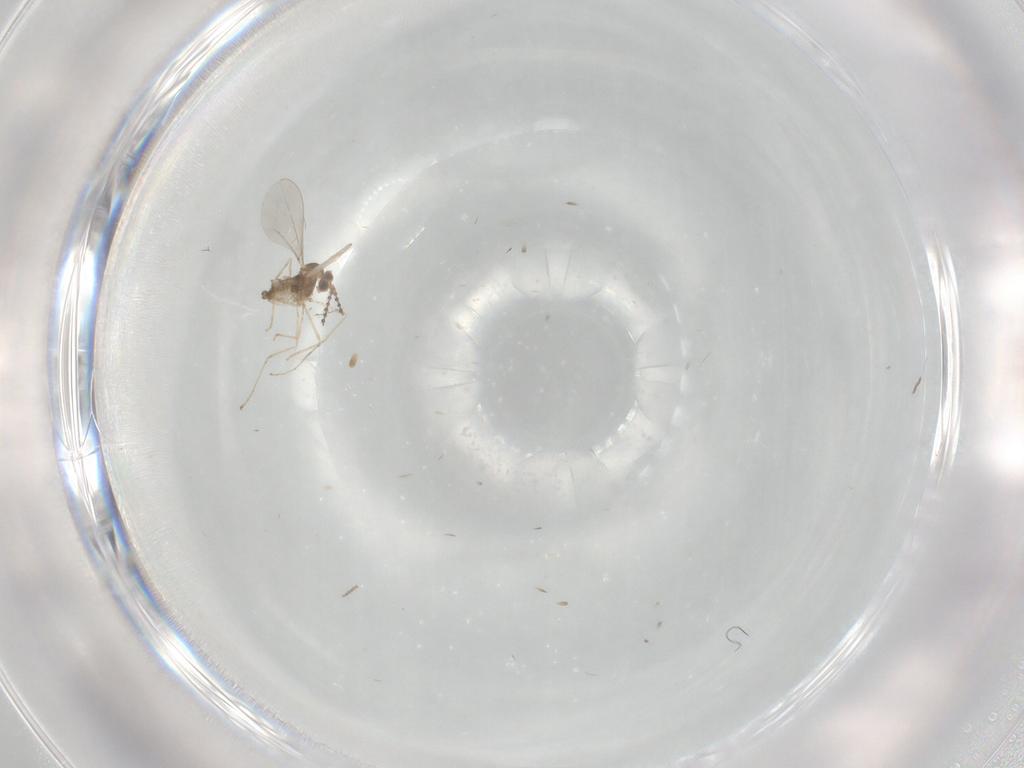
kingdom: Animalia
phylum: Arthropoda
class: Insecta
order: Diptera
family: Cecidomyiidae
